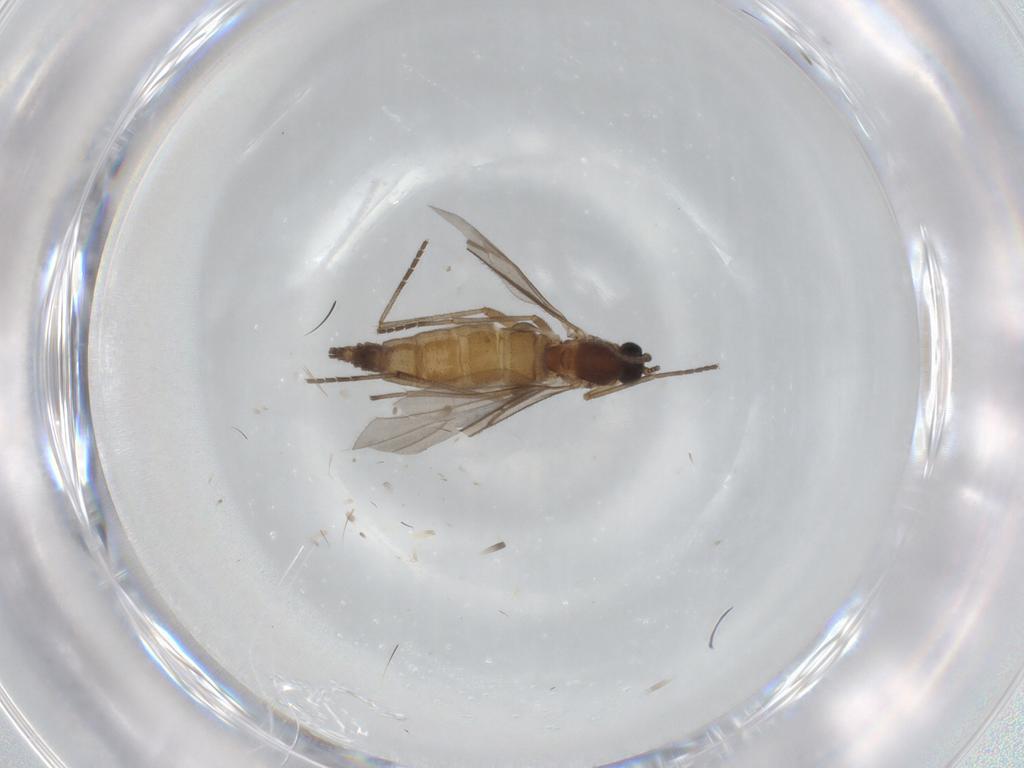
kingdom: Animalia
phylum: Arthropoda
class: Insecta
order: Diptera
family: Sciaridae
